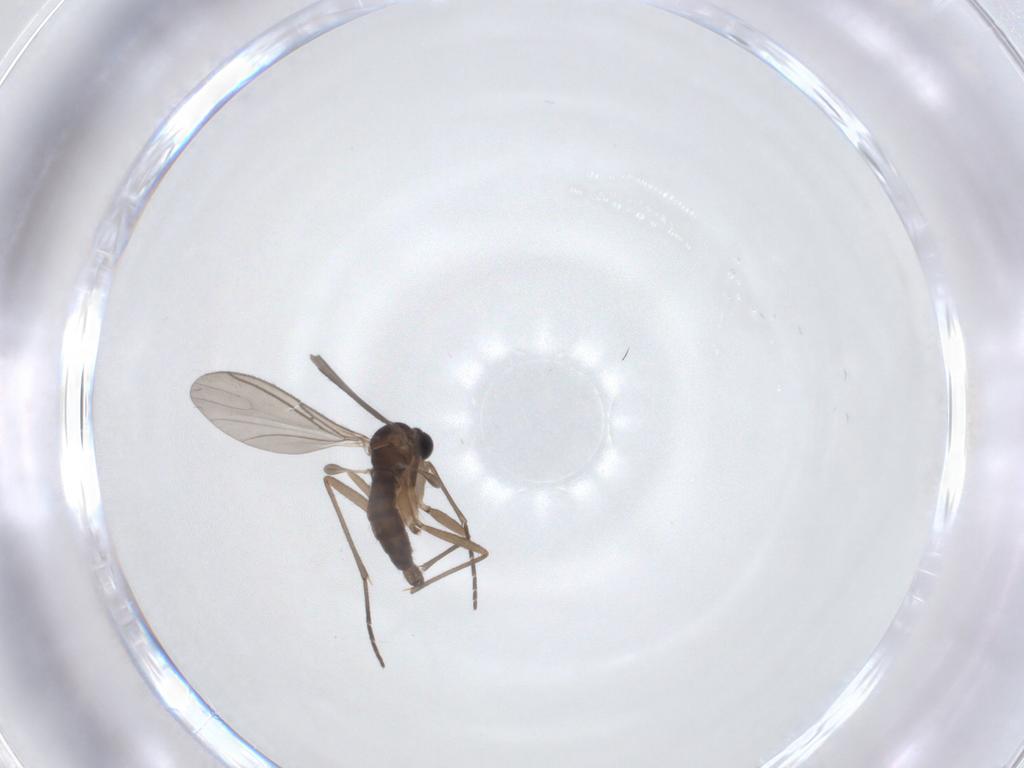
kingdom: Animalia
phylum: Arthropoda
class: Insecta
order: Diptera
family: Sciaridae
